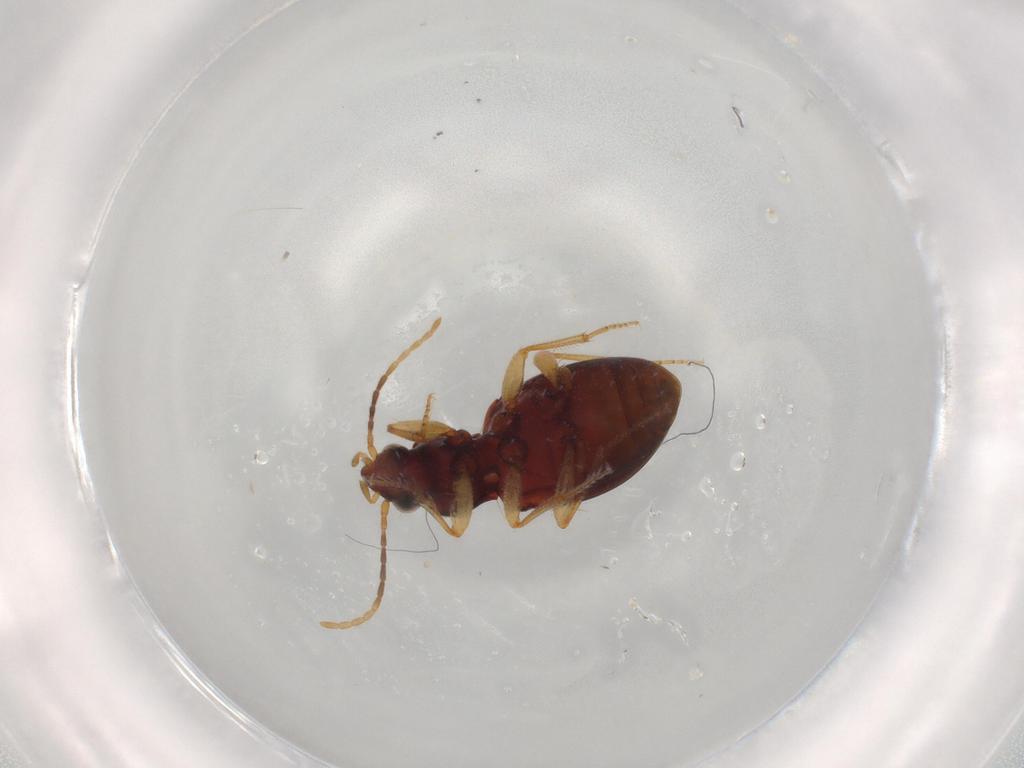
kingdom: Animalia
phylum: Arthropoda
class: Insecta
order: Coleoptera
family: Carabidae
